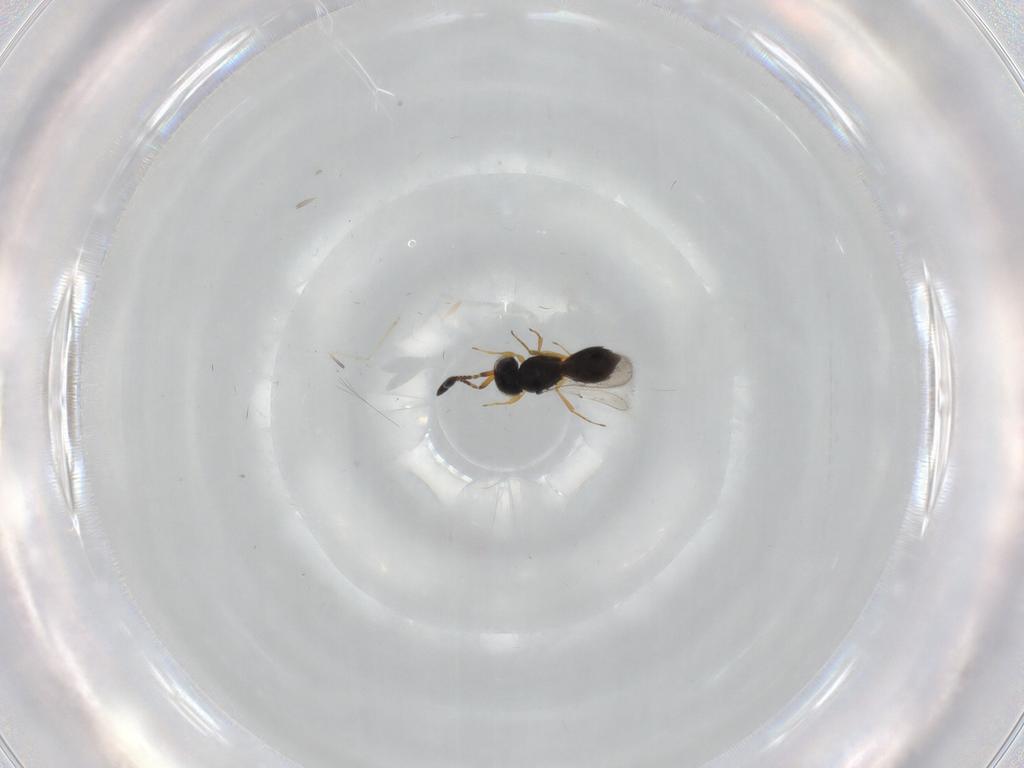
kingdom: Animalia
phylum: Arthropoda
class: Insecta
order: Hymenoptera
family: Scelionidae
